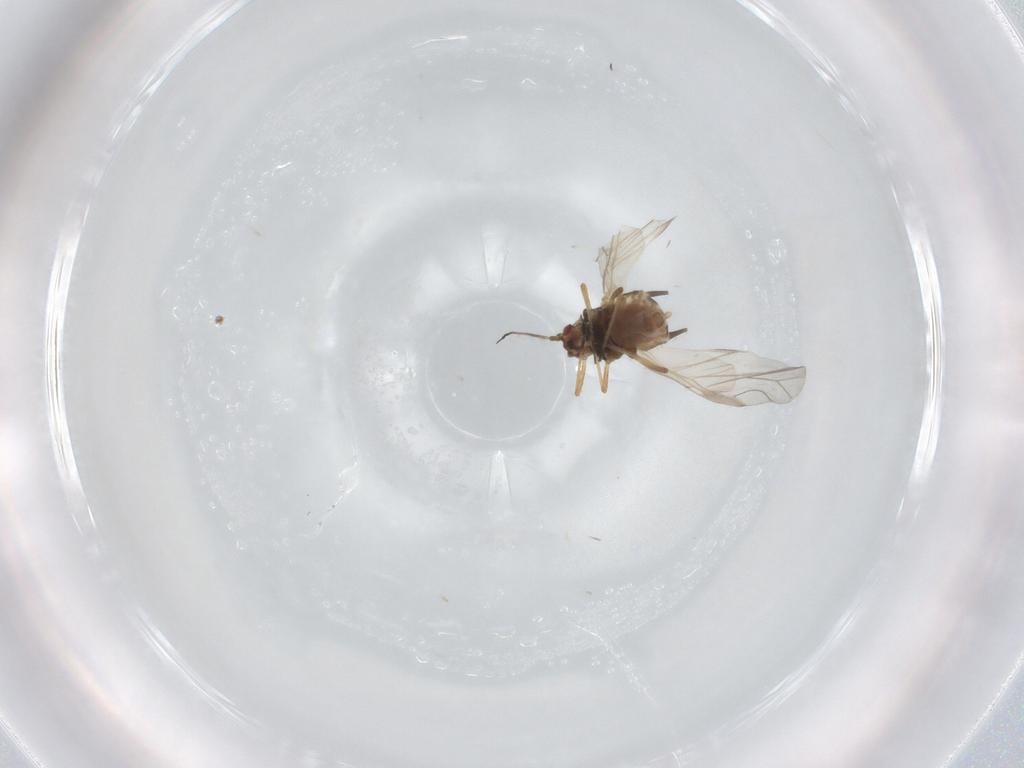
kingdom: Animalia
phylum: Arthropoda
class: Insecta
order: Hemiptera
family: Aphididae
